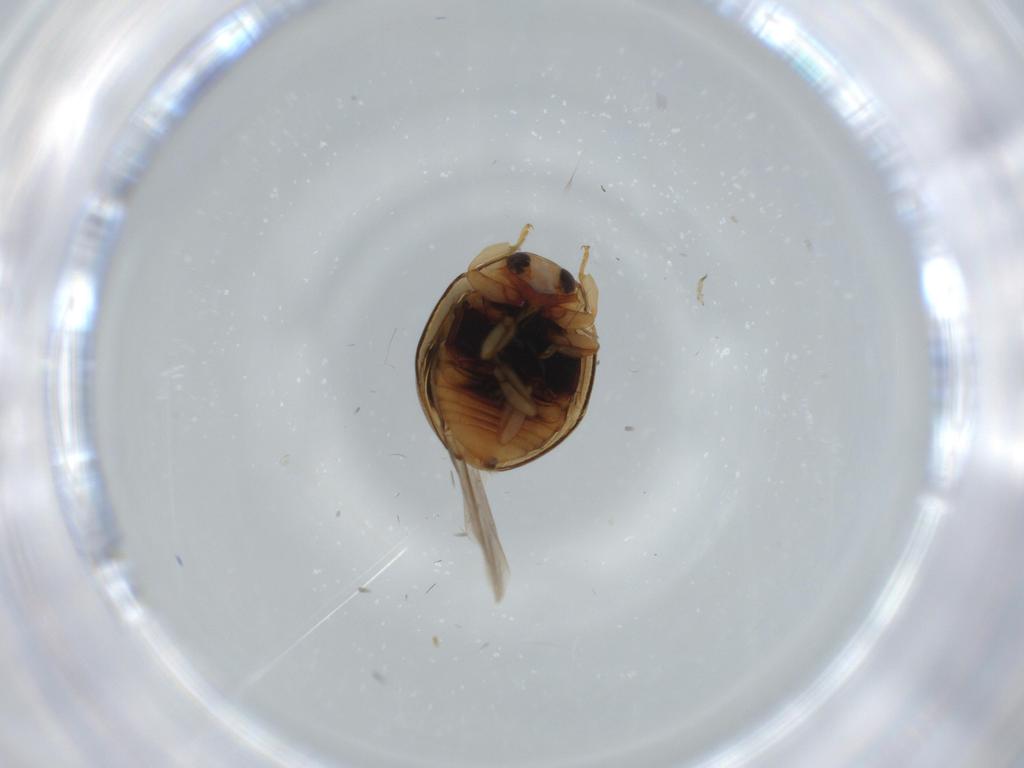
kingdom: Animalia
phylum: Arthropoda
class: Insecta
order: Coleoptera
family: Coccinellidae
